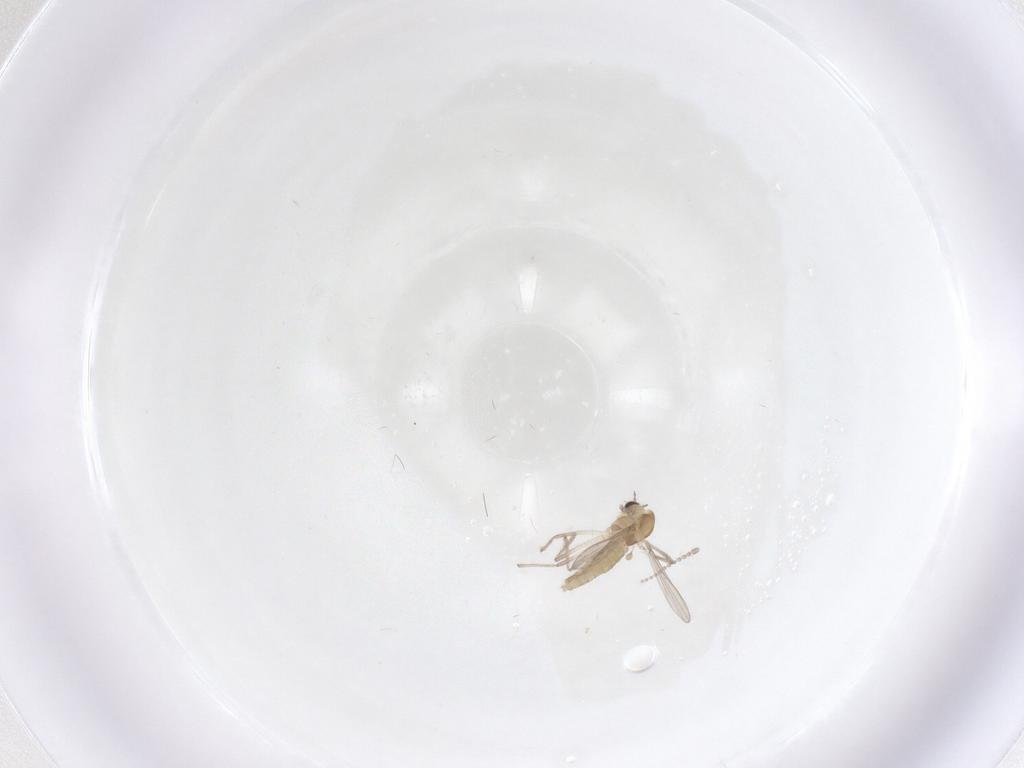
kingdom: Animalia
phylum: Arthropoda
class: Insecta
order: Diptera
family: Chironomidae
